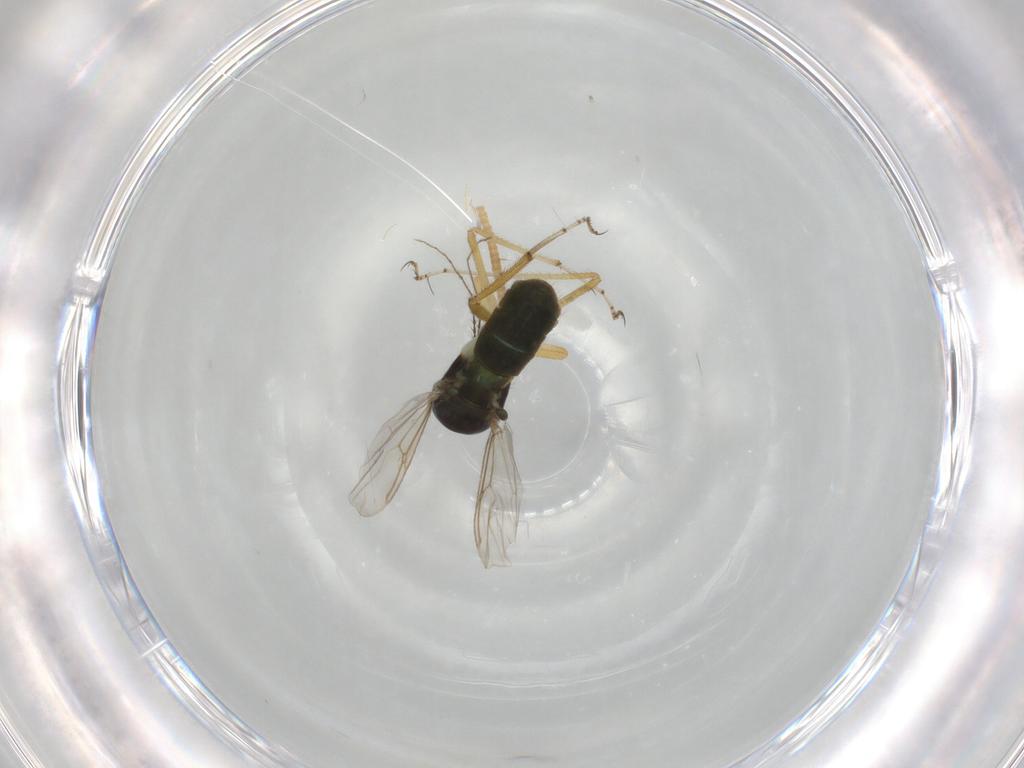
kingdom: Animalia
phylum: Arthropoda
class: Insecta
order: Diptera
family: Ceratopogonidae
